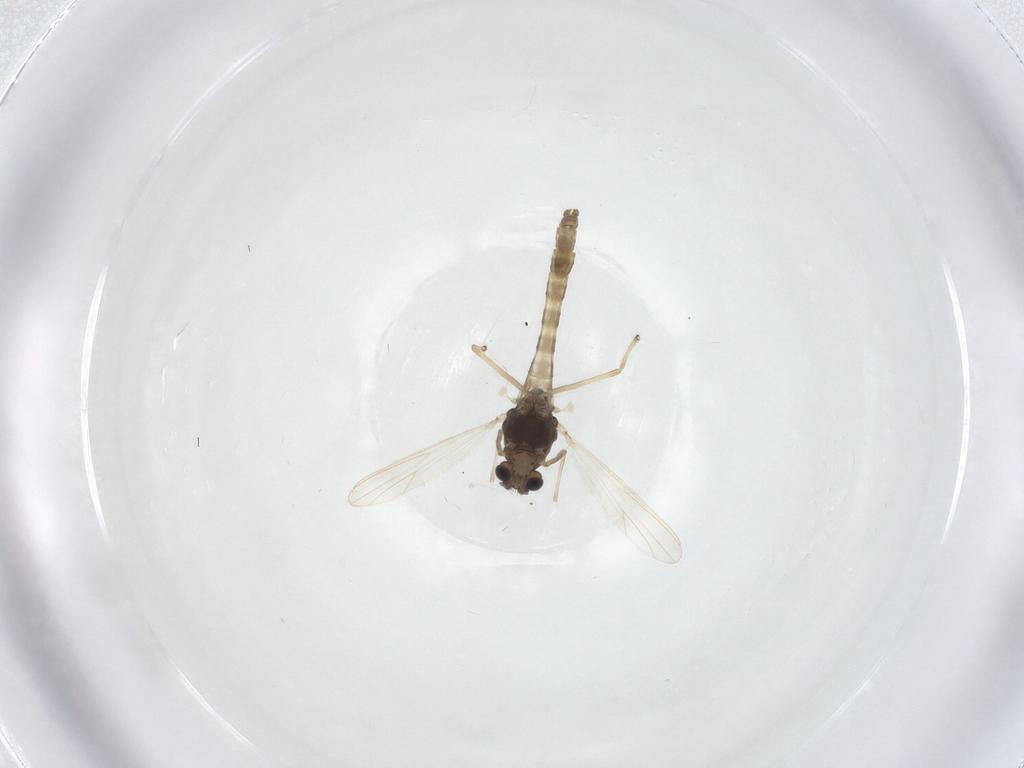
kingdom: Animalia
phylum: Arthropoda
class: Insecta
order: Diptera
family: Sciaridae
